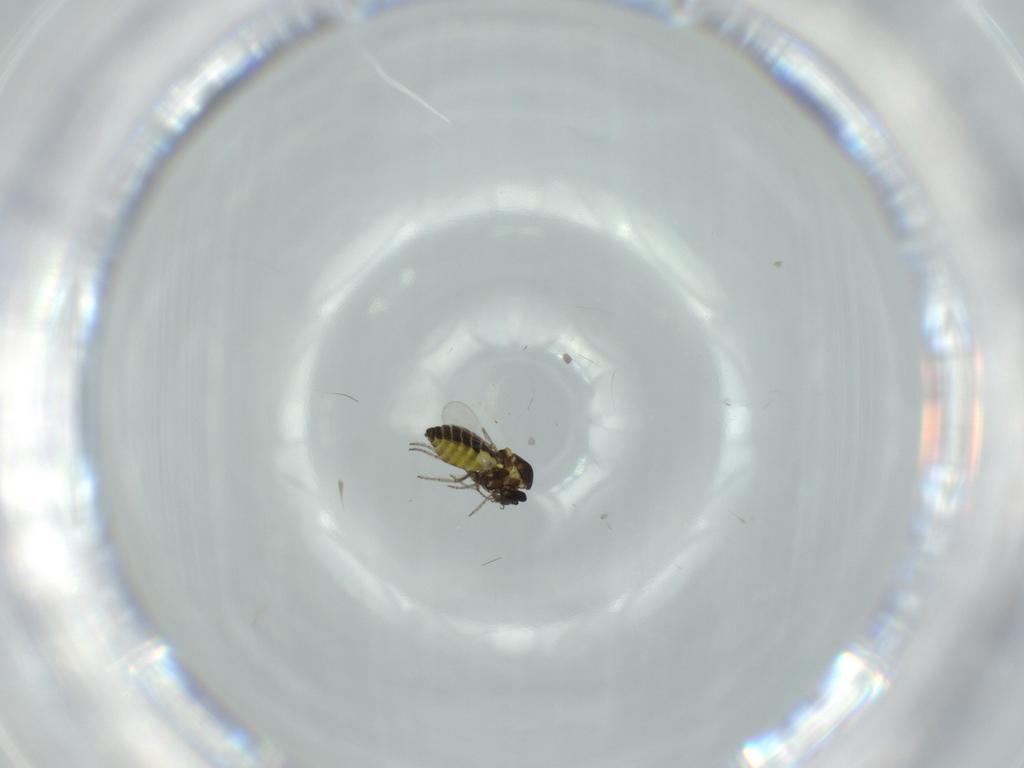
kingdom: Animalia
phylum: Arthropoda
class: Insecta
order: Diptera
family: Ceratopogonidae
